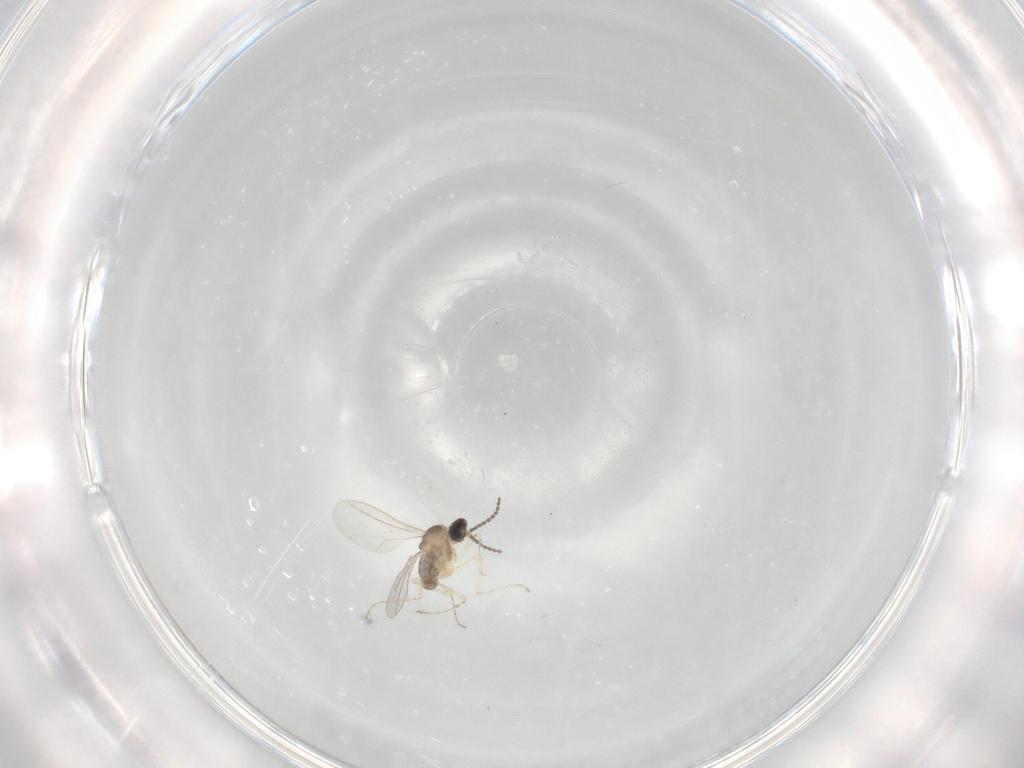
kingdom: Animalia
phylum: Arthropoda
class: Insecta
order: Diptera
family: Cecidomyiidae
